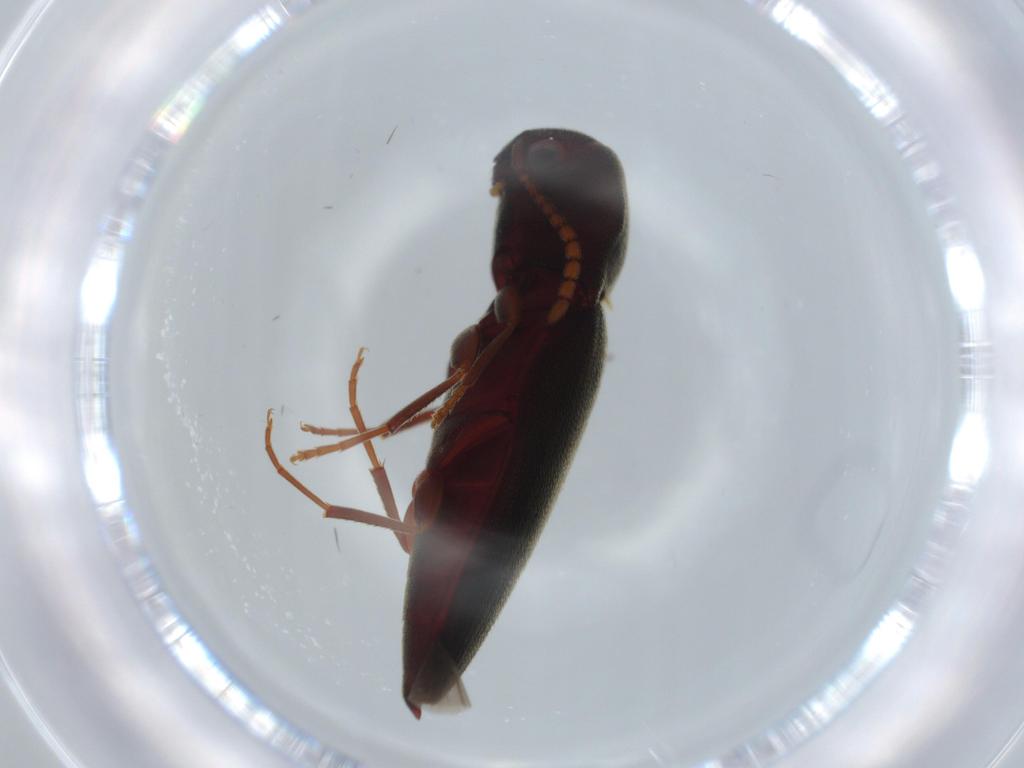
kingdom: Animalia
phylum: Arthropoda
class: Insecta
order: Coleoptera
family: Eucnemidae
